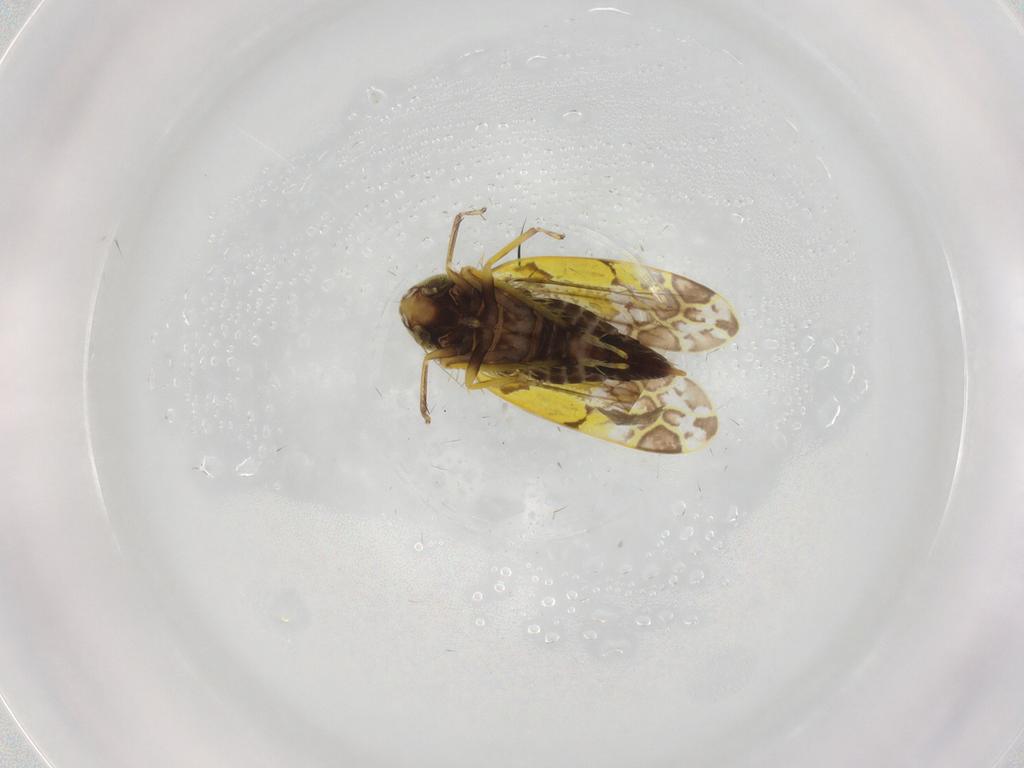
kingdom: Animalia
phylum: Arthropoda
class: Insecta
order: Hemiptera
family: Cicadellidae
